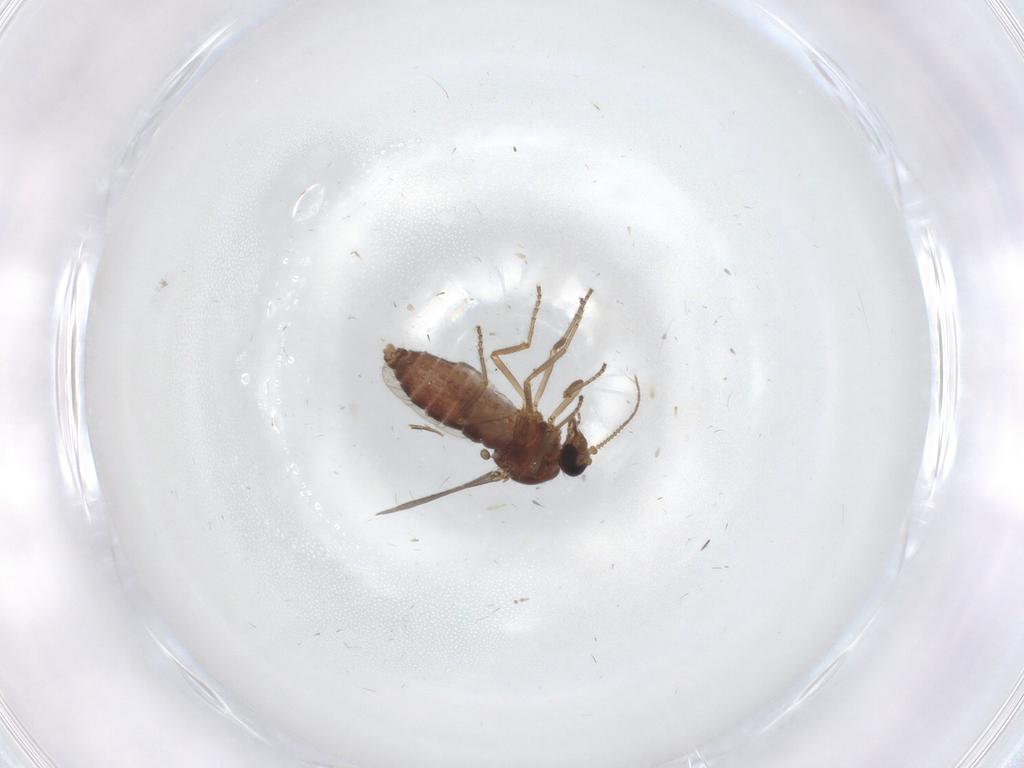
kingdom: Animalia
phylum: Arthropoda
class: Insecta
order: Diptera
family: Ceratopogonidae
